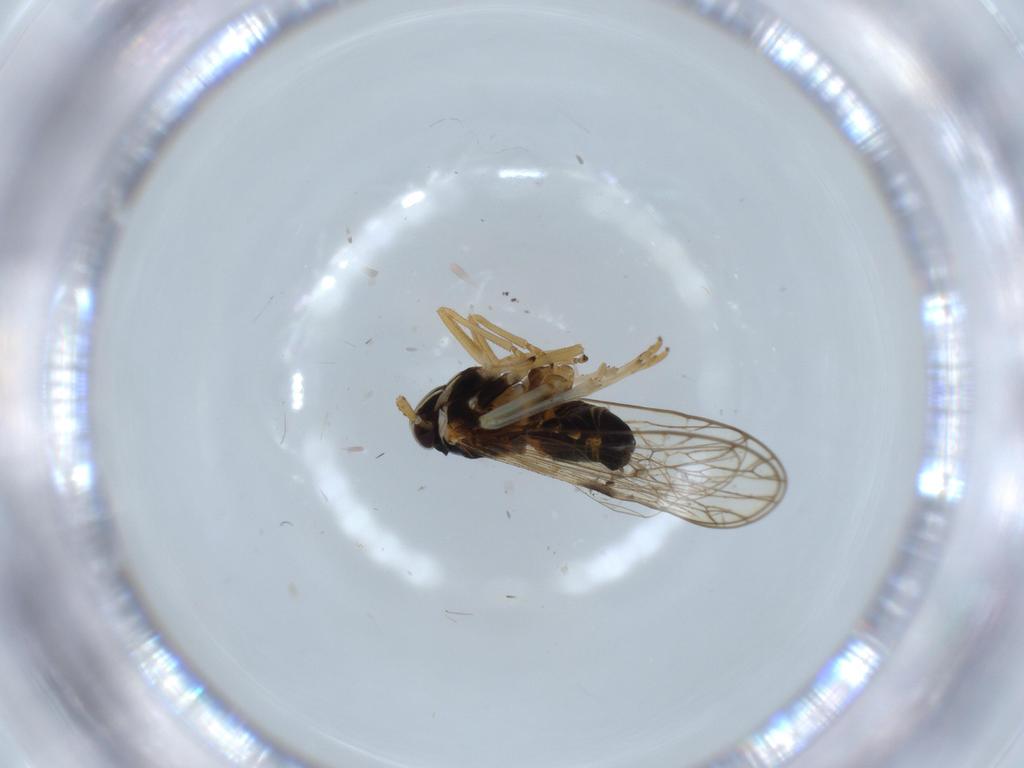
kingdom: Animalia
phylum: Arthropoda
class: Insecta
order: Hemiptera
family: Cicadellidae
